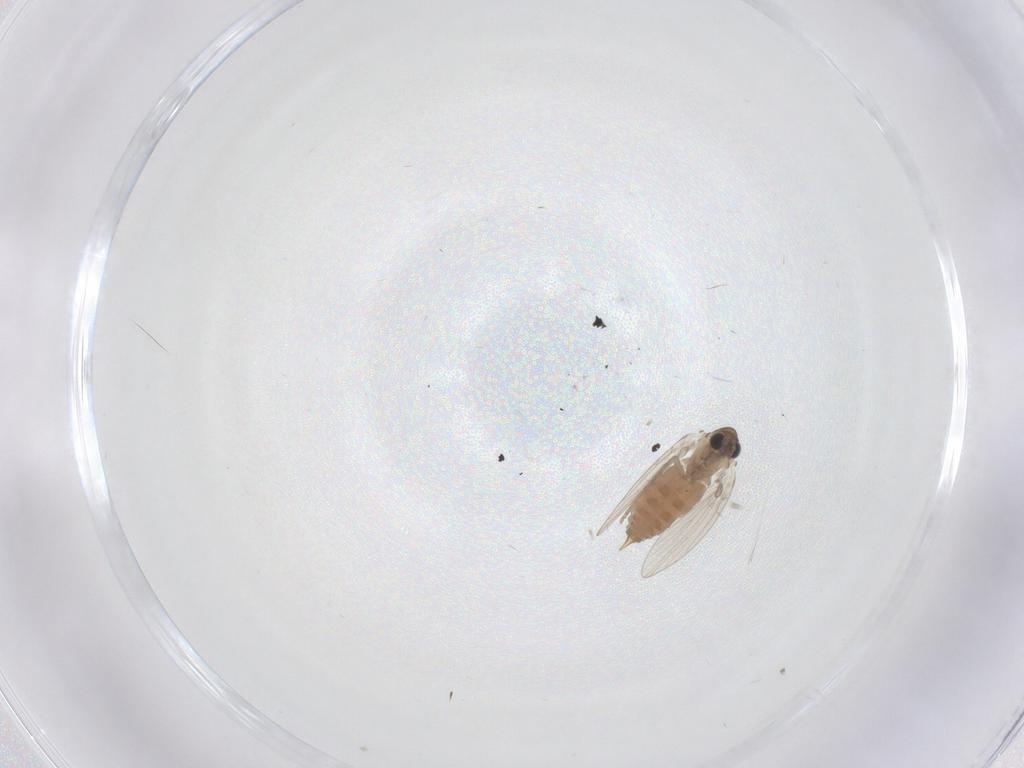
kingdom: Animalia
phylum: Arthropoda
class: Insecta
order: Diptera
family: Psychodidae
